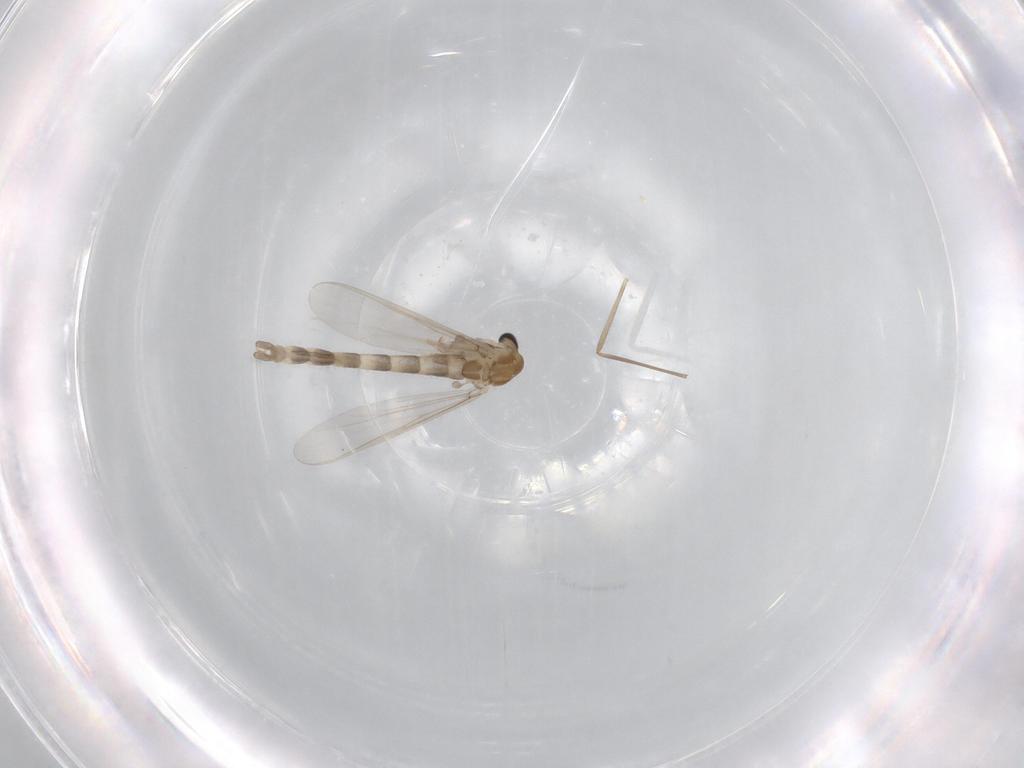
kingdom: Animalia
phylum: Arthropoda
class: Insecta
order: Diptera
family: Chironomidae
